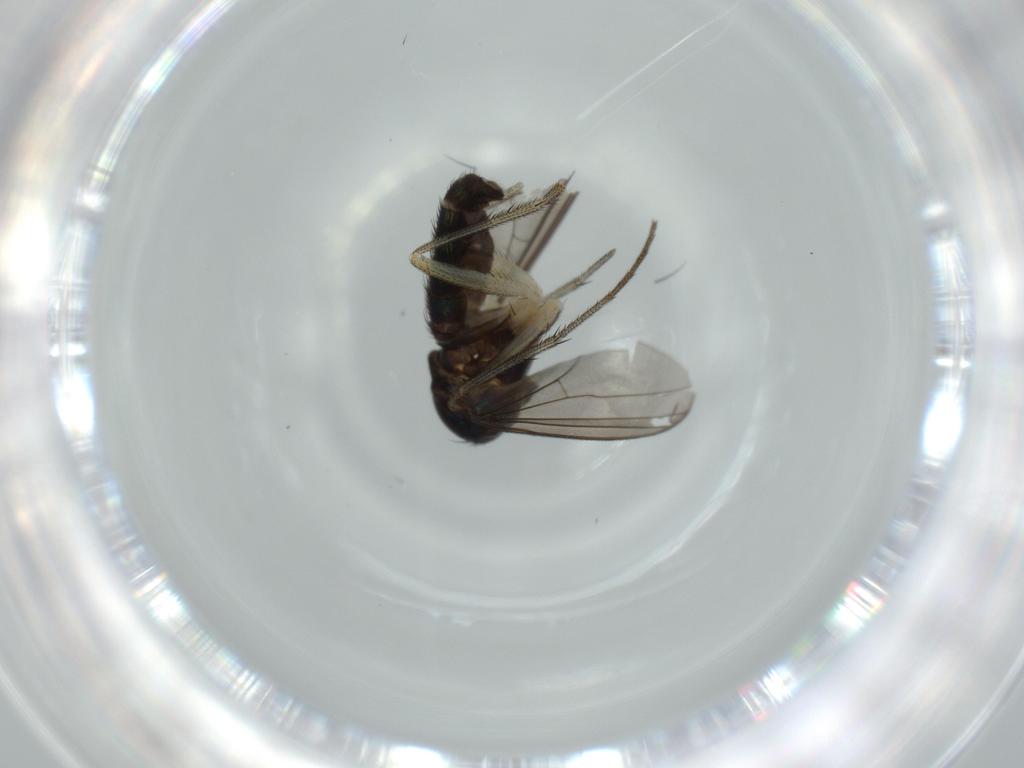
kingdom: Animalia
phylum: Arthropoda
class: Insecta
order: Diptera
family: Dolichopodidae
